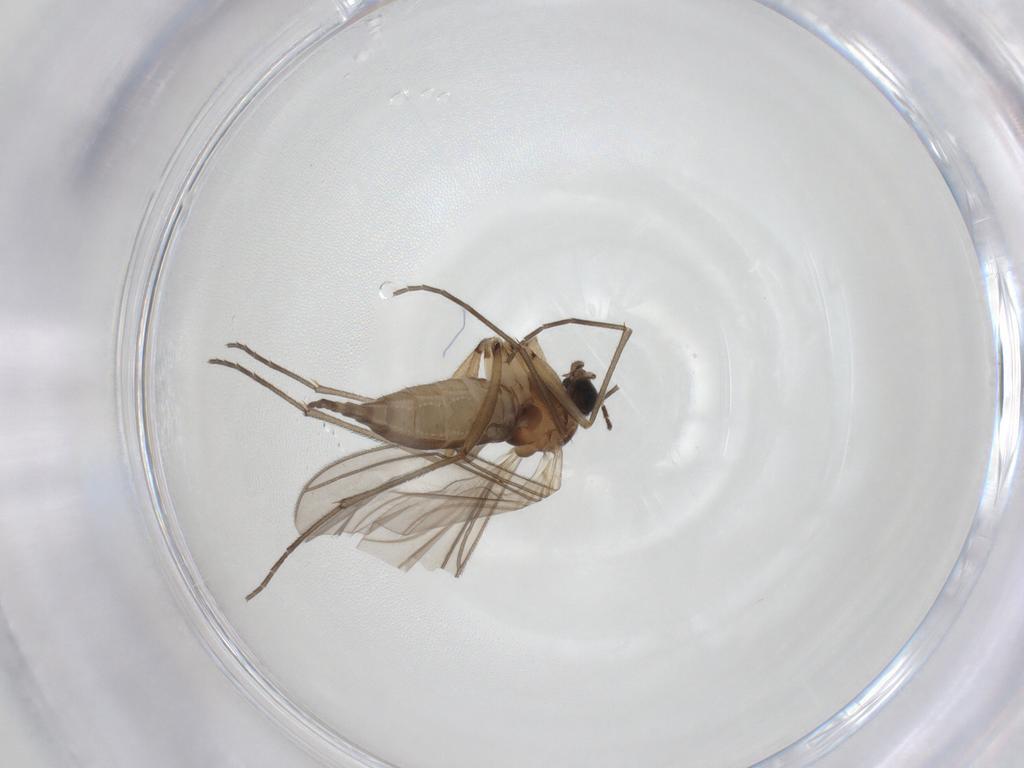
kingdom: Animalia
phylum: Arthropoda
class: Insecta
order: Diptera
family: Sciaridae
